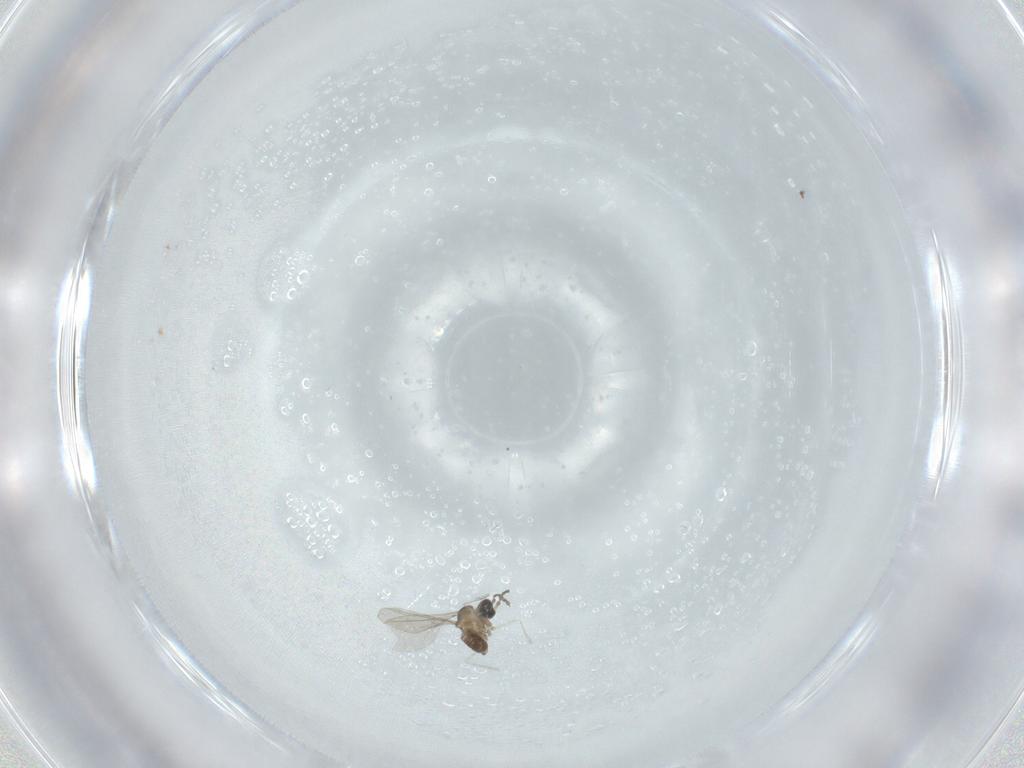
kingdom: Animalia
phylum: Arthropoda
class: Insecta
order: Diptera
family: Cecidomyiidae
